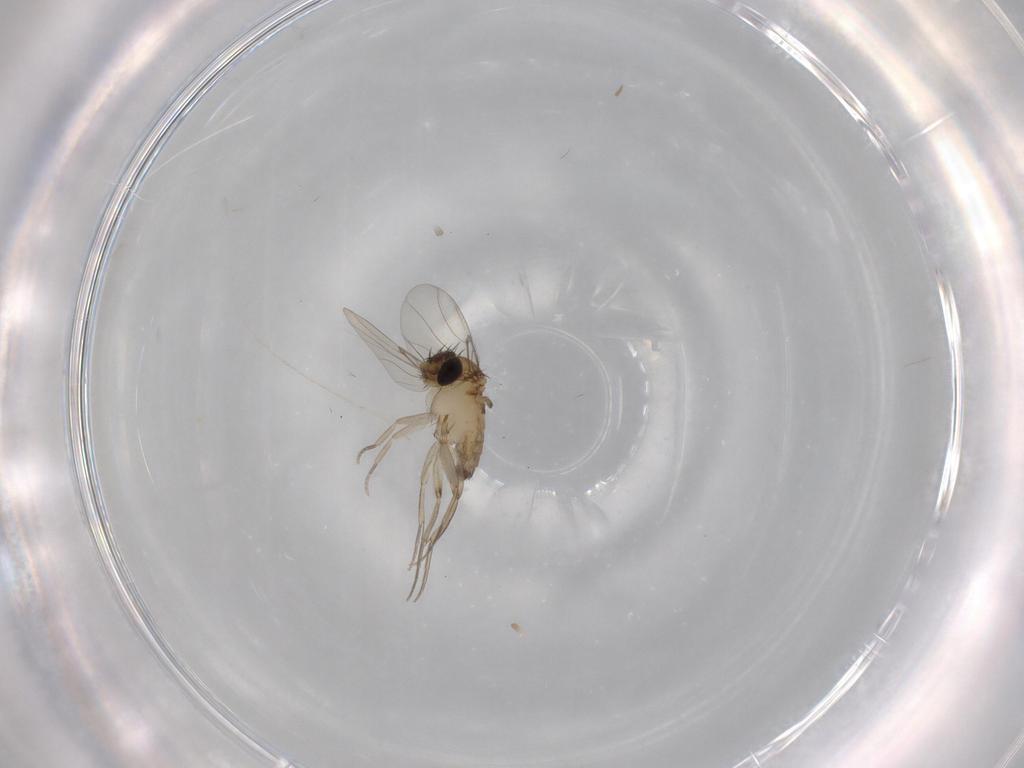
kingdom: Animalia
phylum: Arthropoda
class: Insecta
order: Diptera
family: Phoridae
